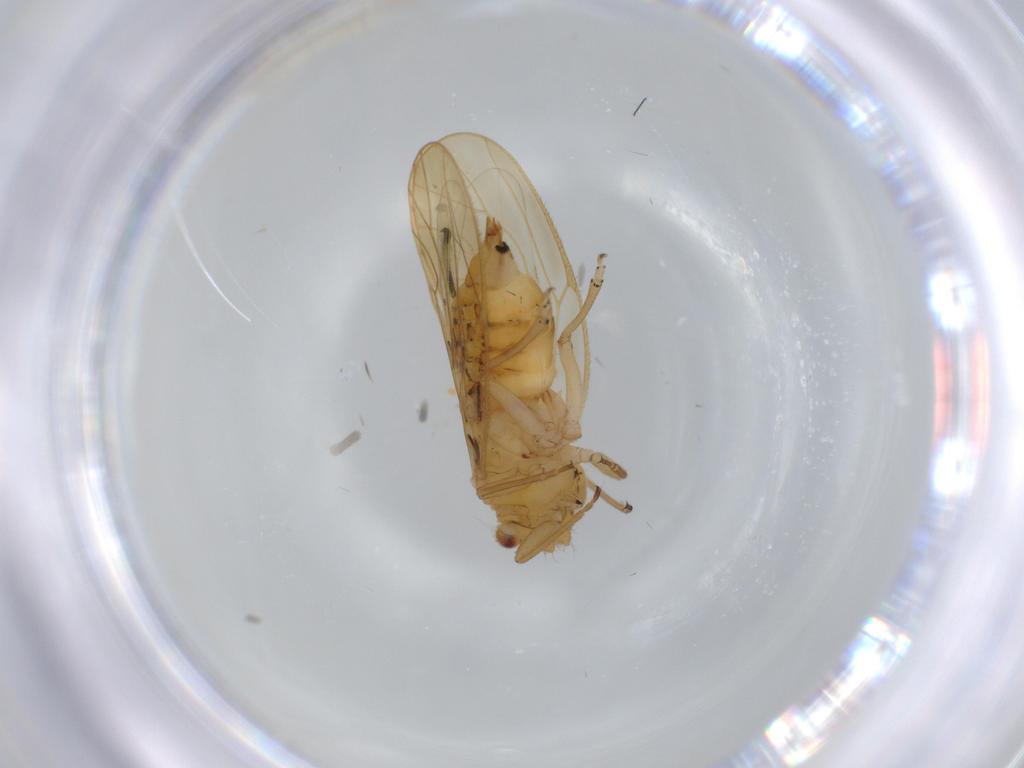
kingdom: Animalia
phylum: Arthropoda
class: Insecta
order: Hemiptera
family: Psyllidae
